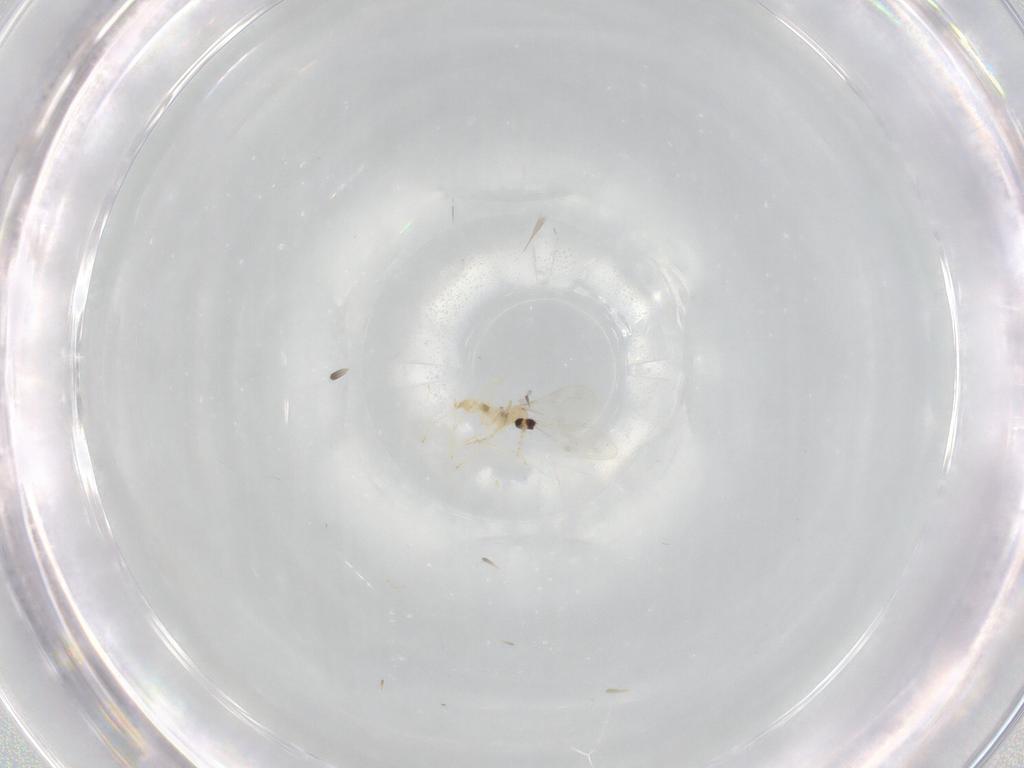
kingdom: Animalia
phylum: Arthropoda
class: Insecta
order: Diptera
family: Cecidomyiidae
